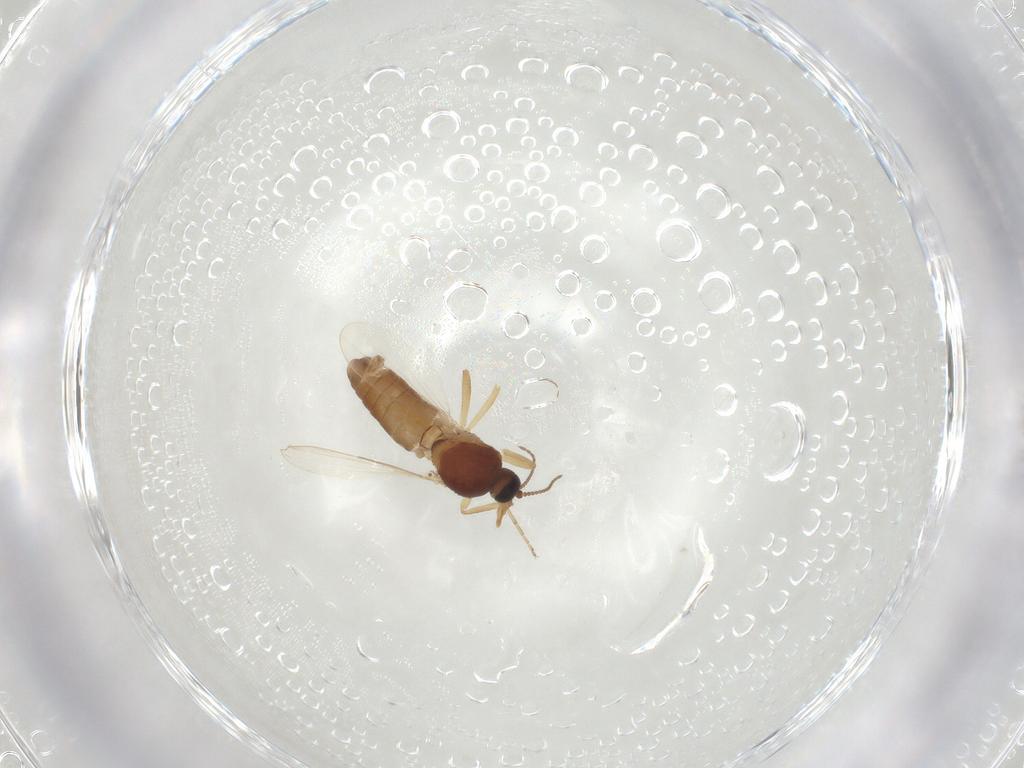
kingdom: Animalia
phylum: Arthropoda
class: Insecta
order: Diptera
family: Ceratopogonidae
